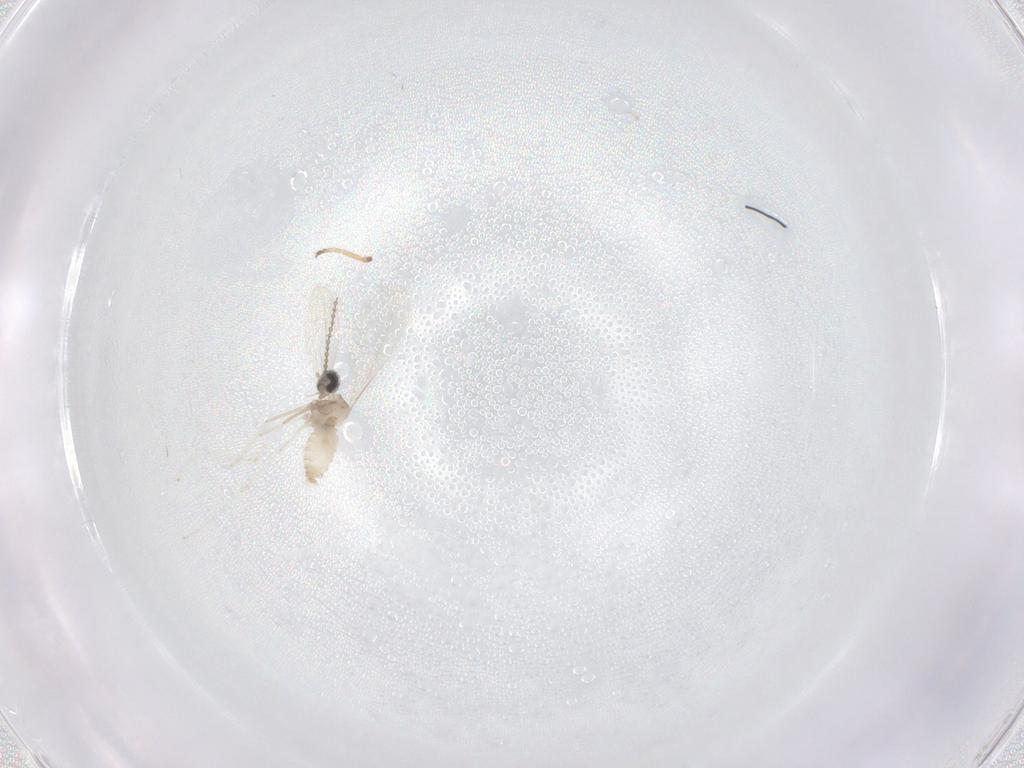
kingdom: Animalia
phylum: Arthropoda
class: Insecta
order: Diptera
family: Chloropidae
